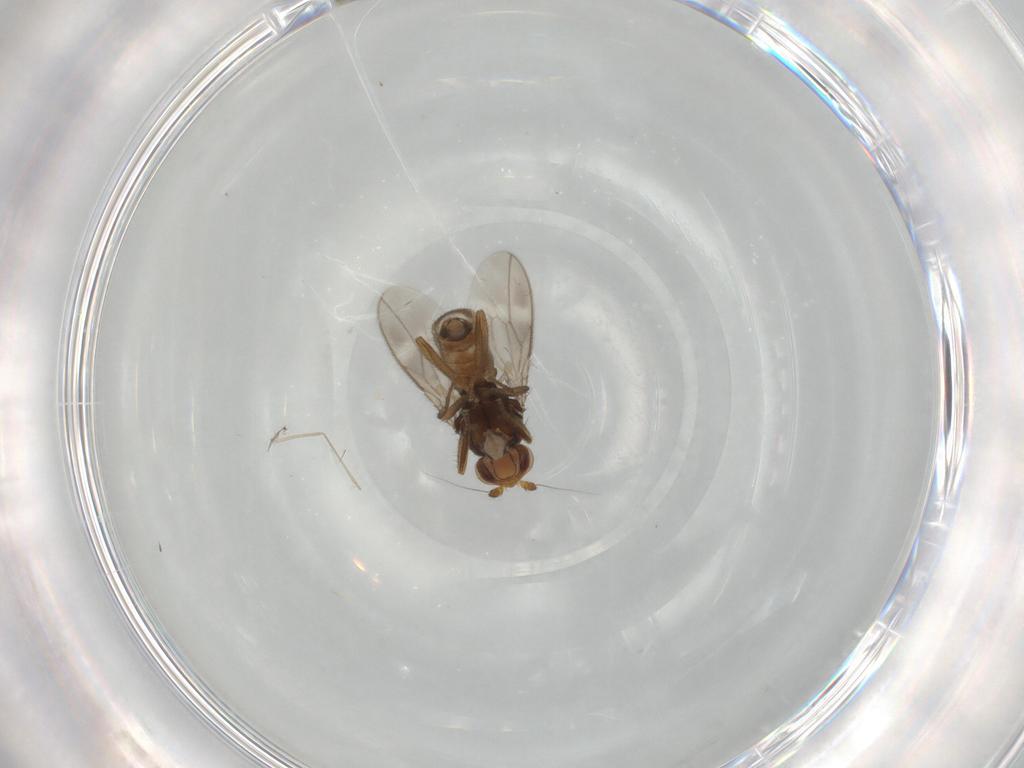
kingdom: Animalia
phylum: Arthropoda
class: Insecta
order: Diptera
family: Sphaeroceridae
